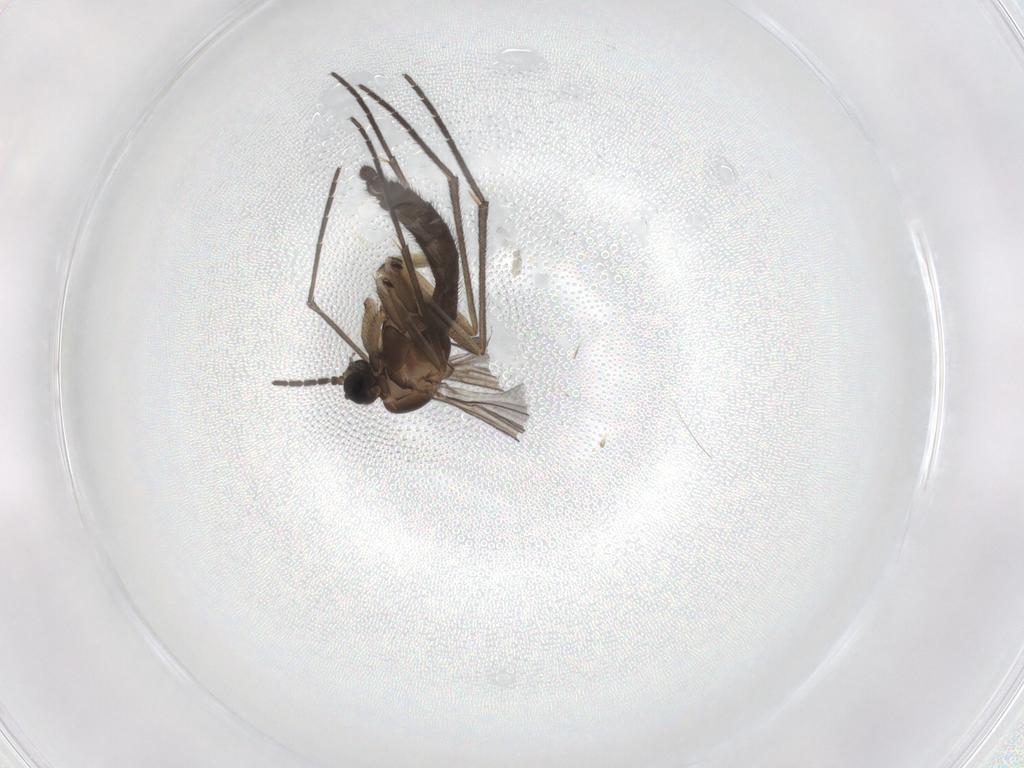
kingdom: Animalia
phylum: Arthropoda
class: Insecta
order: Diptera
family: Sciaridae
